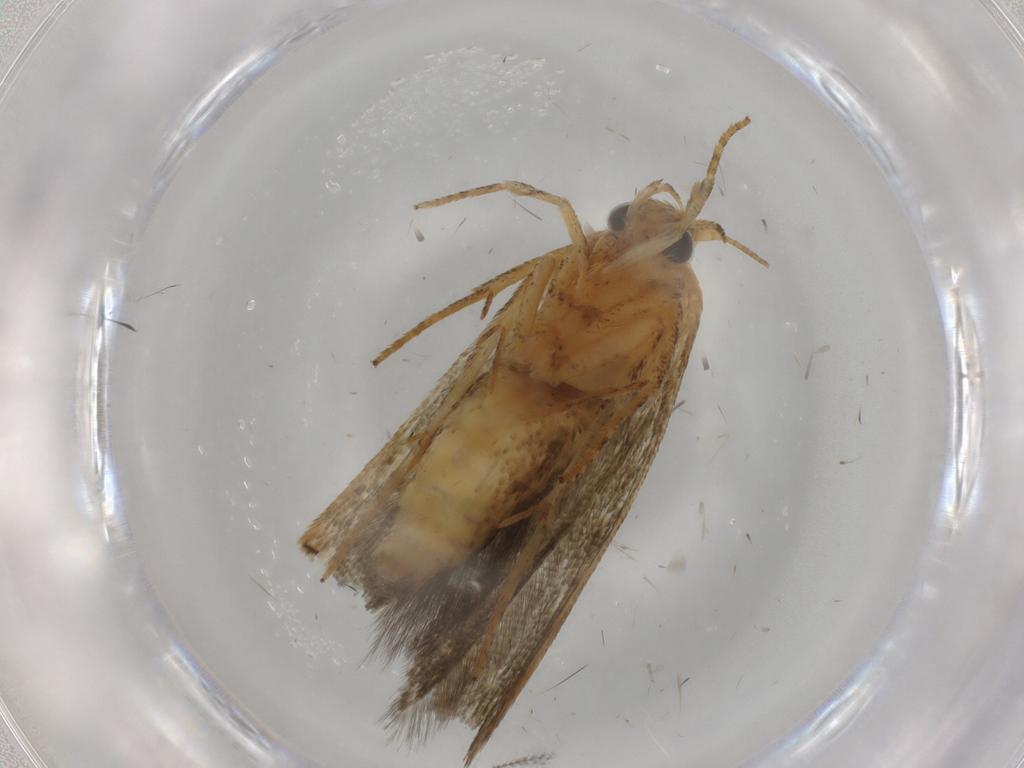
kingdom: Animalia
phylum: Arthropoda
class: Insecta
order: Lepidoptera
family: Blastobasidae
